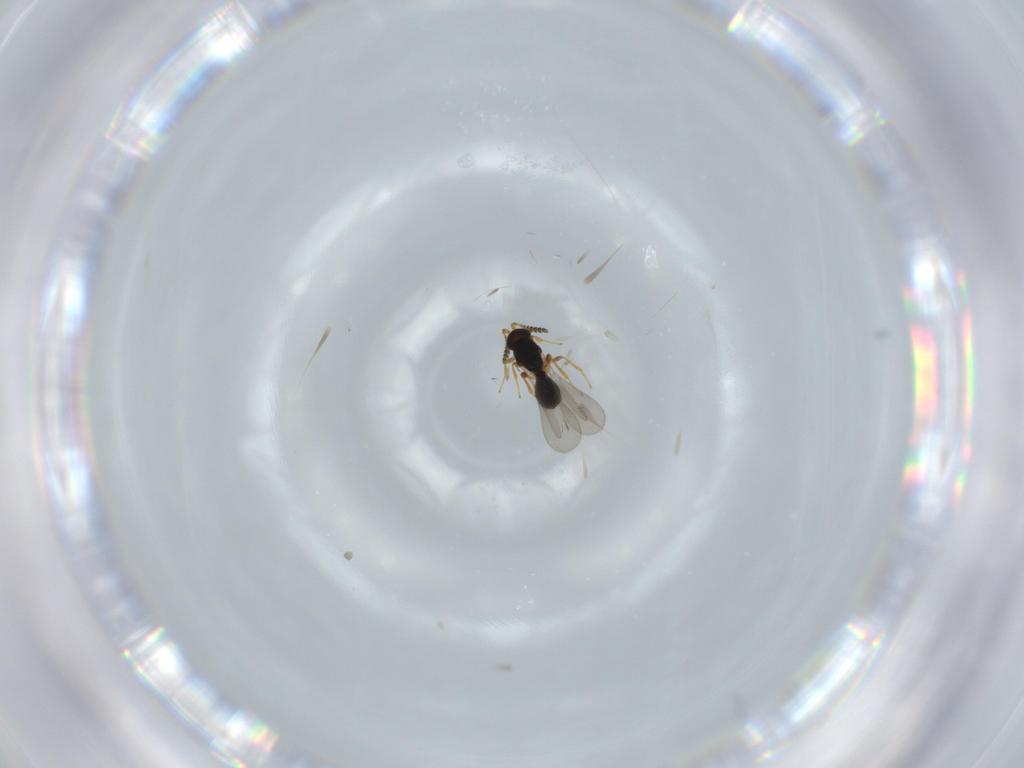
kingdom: Animalia
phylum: Arthropoda
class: Insecta
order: Hymenoptera
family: Platygastridae
